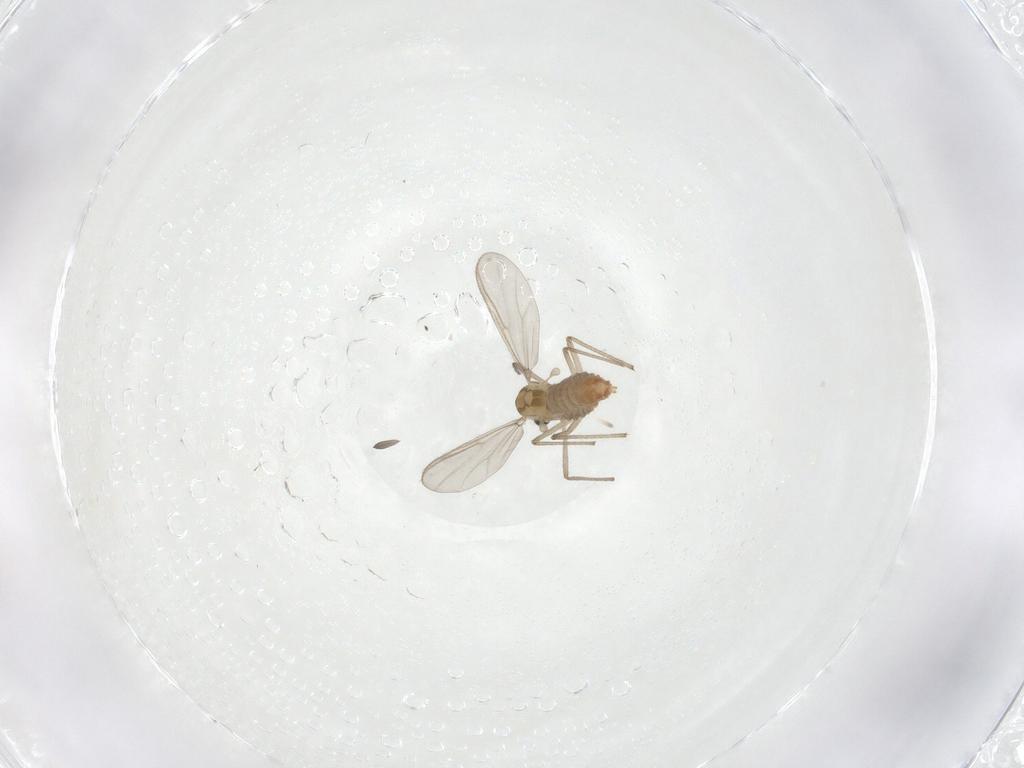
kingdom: Animalia
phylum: Arthropoda
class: Insecta
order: Diptera
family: Chironomidae
